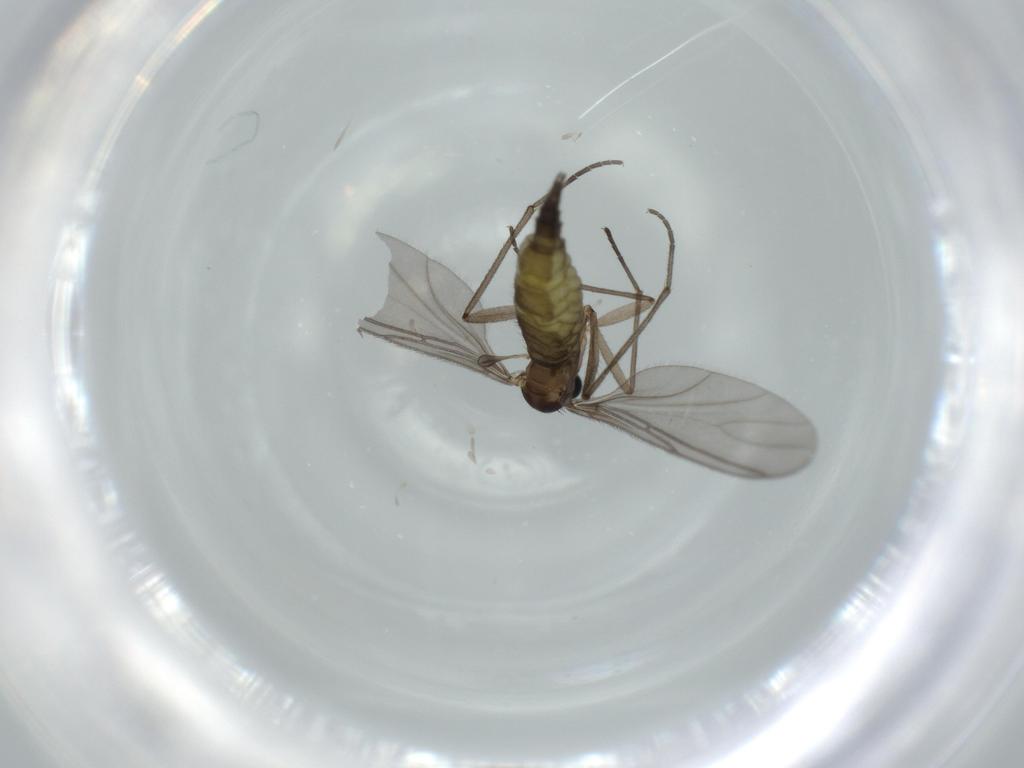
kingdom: Animalia
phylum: Arthropoda
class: Insecta
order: Diptera
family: Sciaridae
